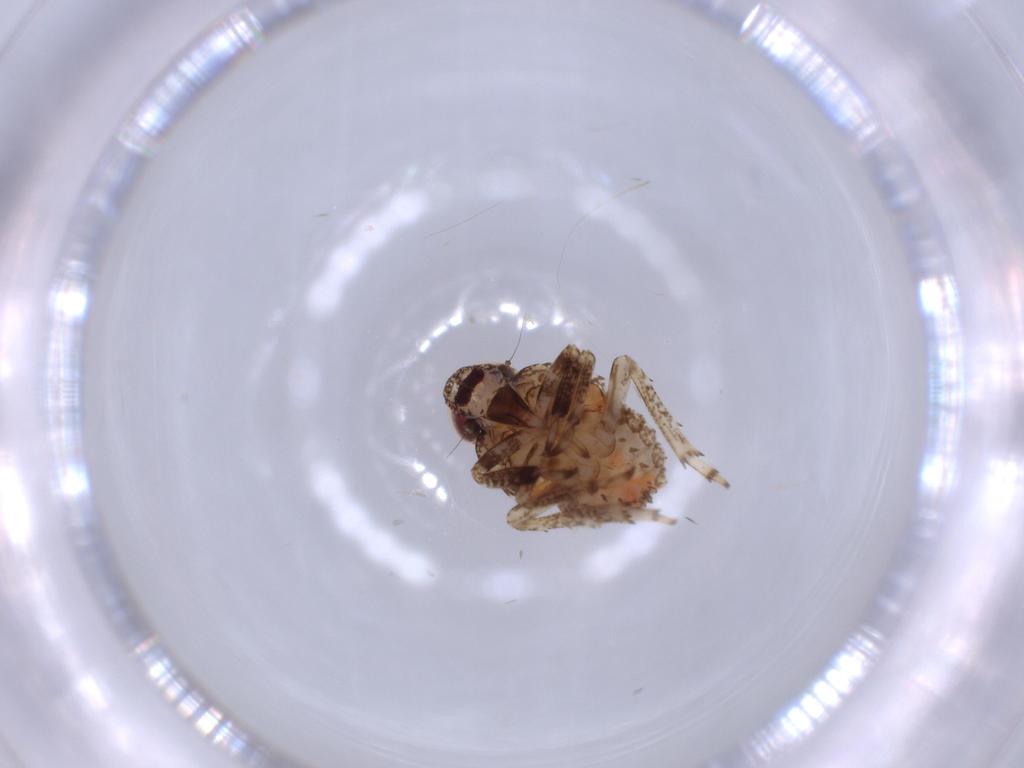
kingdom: Animalia
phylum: Arthropoda
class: Insecta
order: Hemiptera
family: Issidae
